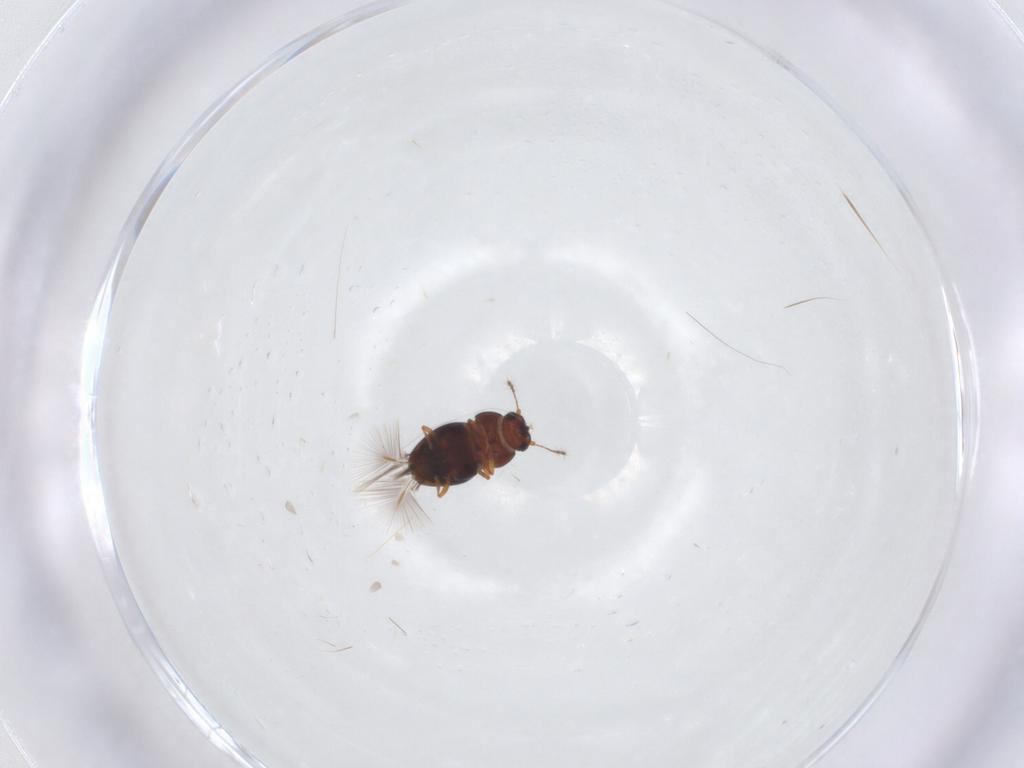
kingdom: Animalia
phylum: Arthropoda
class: Insecta
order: Coleoptera
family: Ptiliidae
